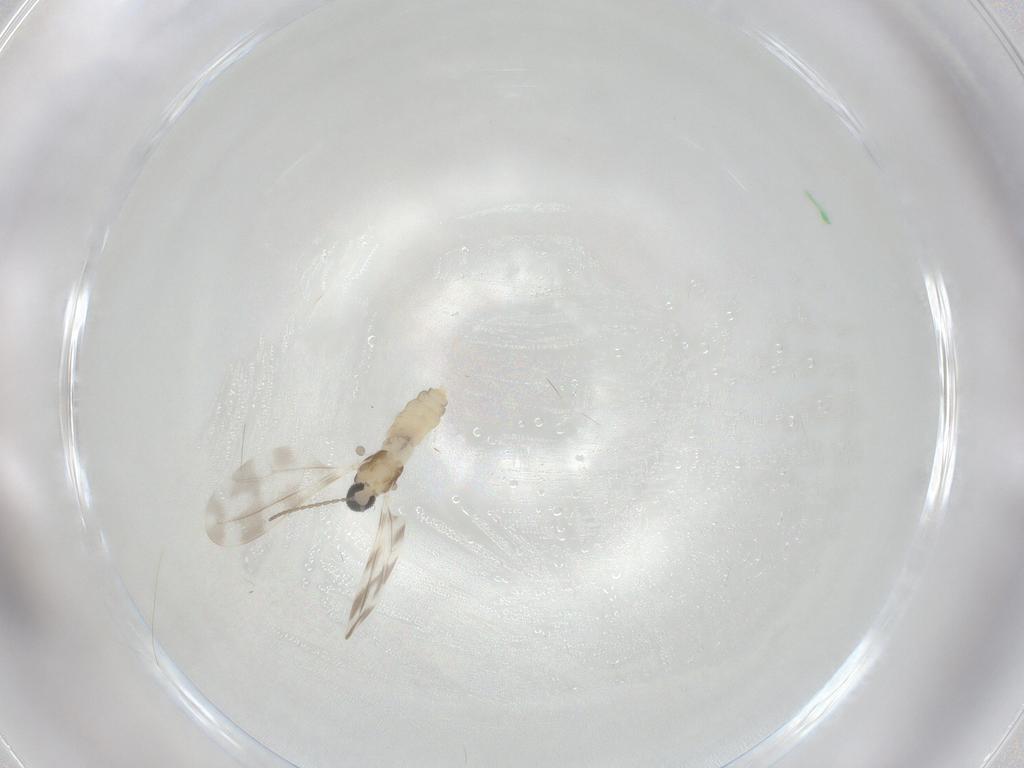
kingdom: Animalia
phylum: Arthropoda
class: Insecta
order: Diptera
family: Cecidomyiidae
